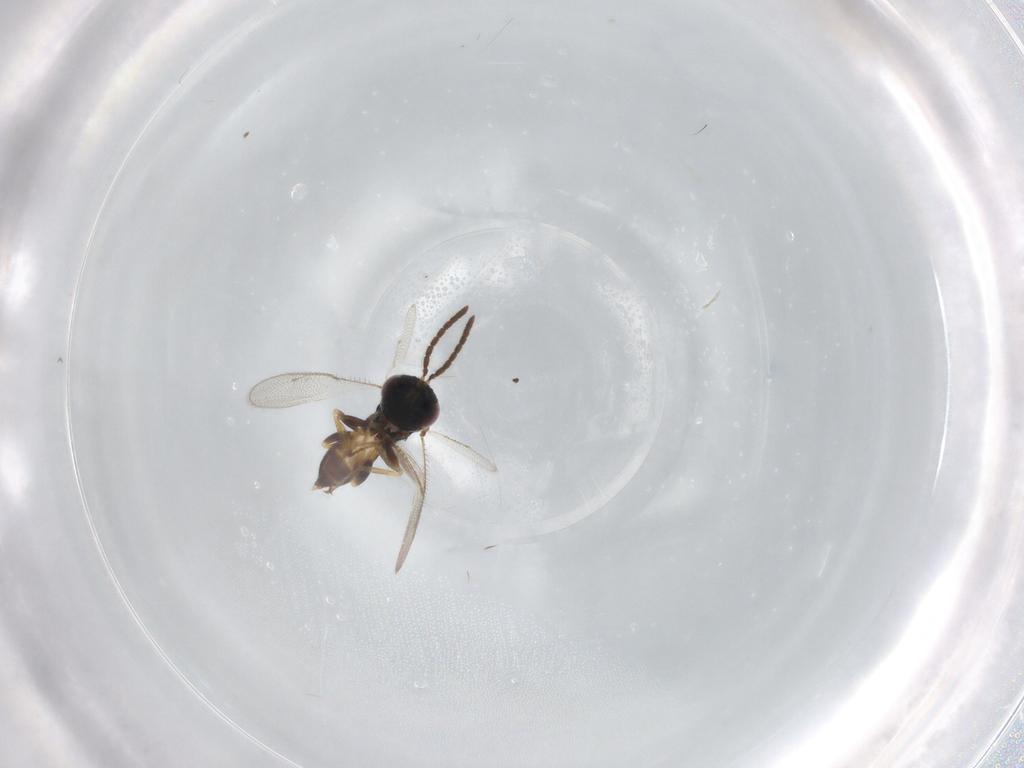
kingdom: Animalia
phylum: Arthropoda
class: Insecta
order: Hymenoptera
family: Pteromalidae
